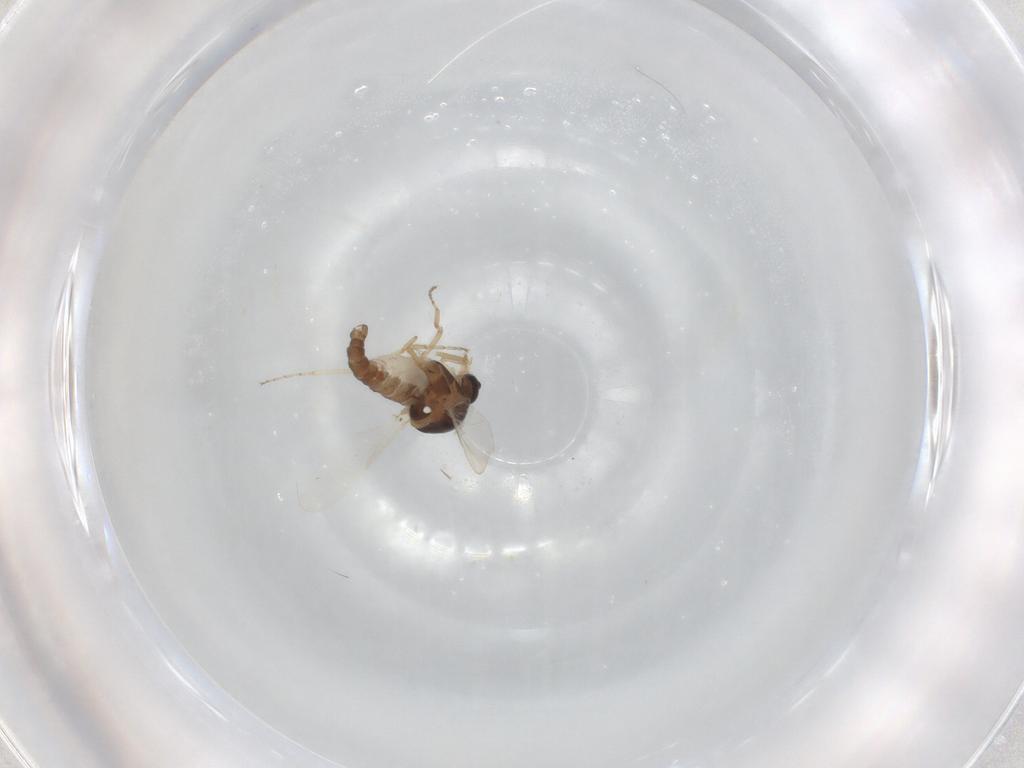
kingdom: Animalia
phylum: Arthropoda
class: Insecta
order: Diptera
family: Ceratopogonidae
